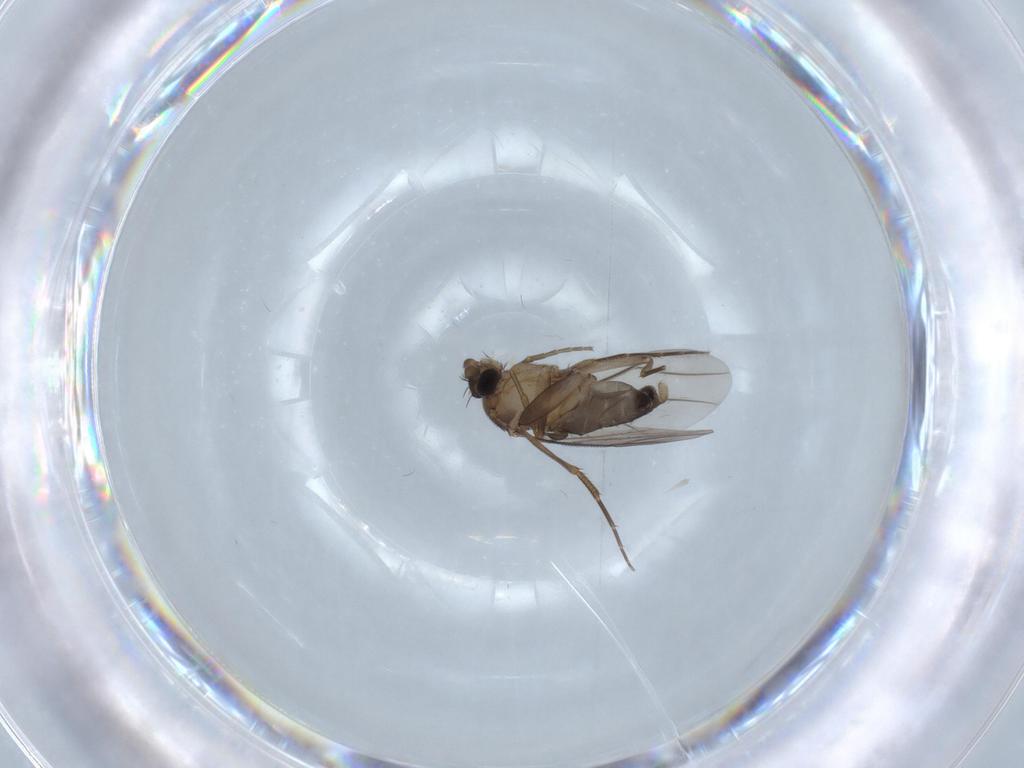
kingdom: Animalia
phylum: Arthropoda
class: Insecta
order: Diptera
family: Phoridae
